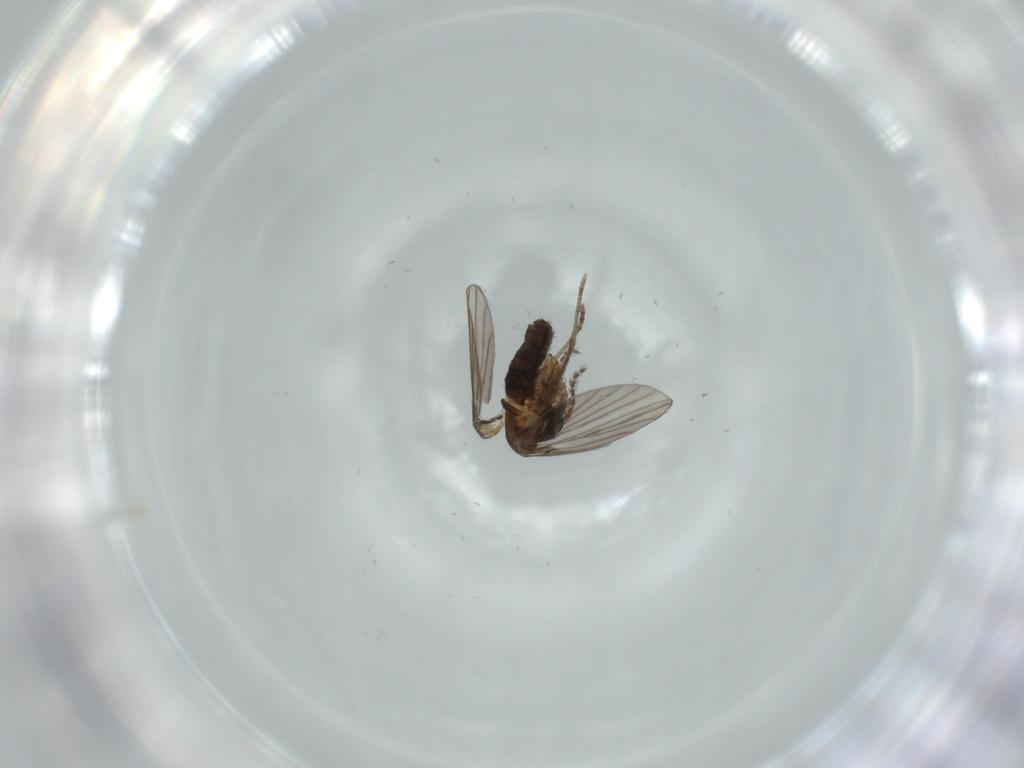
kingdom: Animalia
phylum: Arthropoda
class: Insecta
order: Diptera
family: Psychodidae
